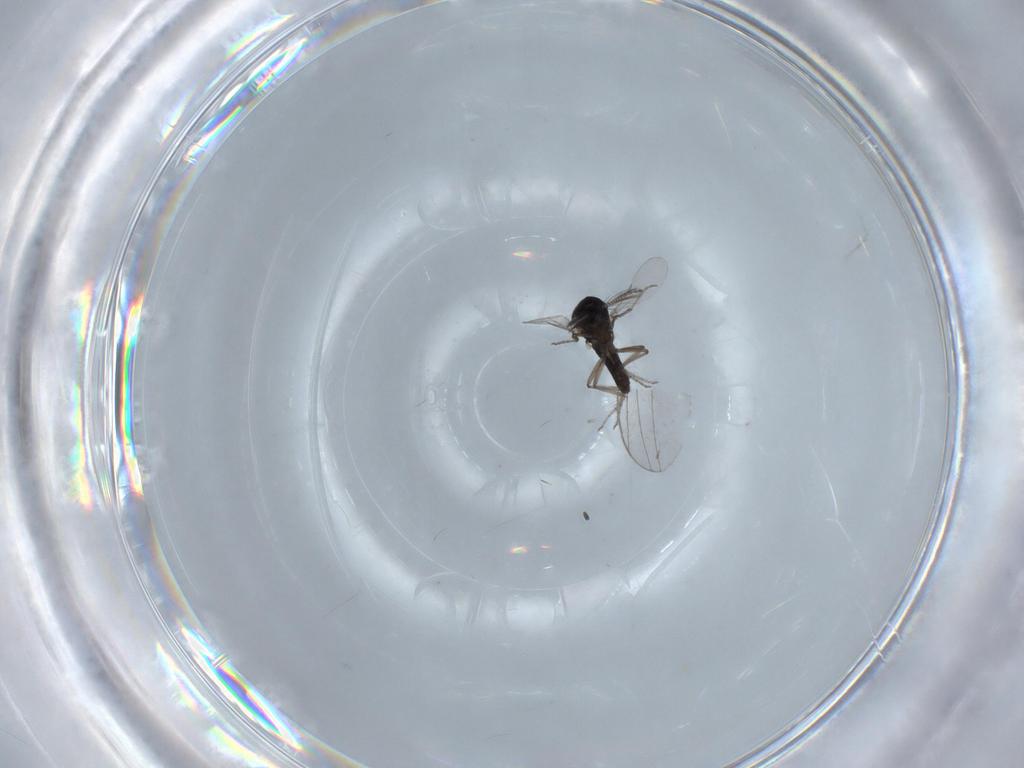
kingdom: Animalia
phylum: Arthropoda
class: Insecta
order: Diptera
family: Ceratopogonidae
